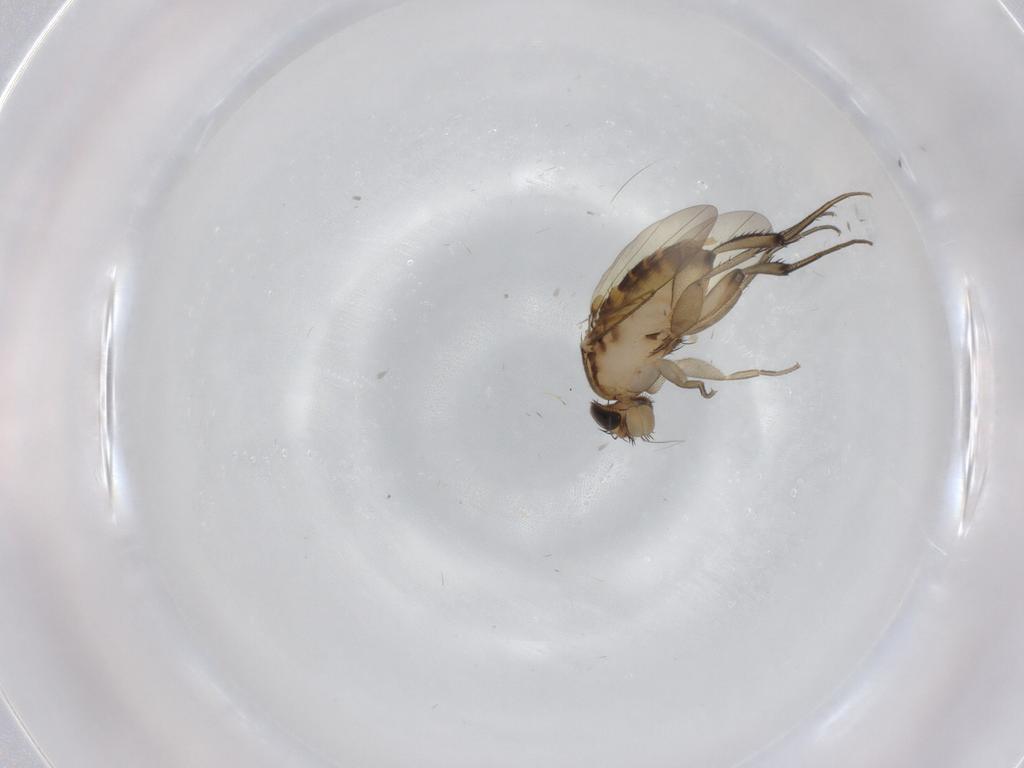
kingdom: Animalia
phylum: Arthropoda
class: Insecta
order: Diptera
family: Phoridae
